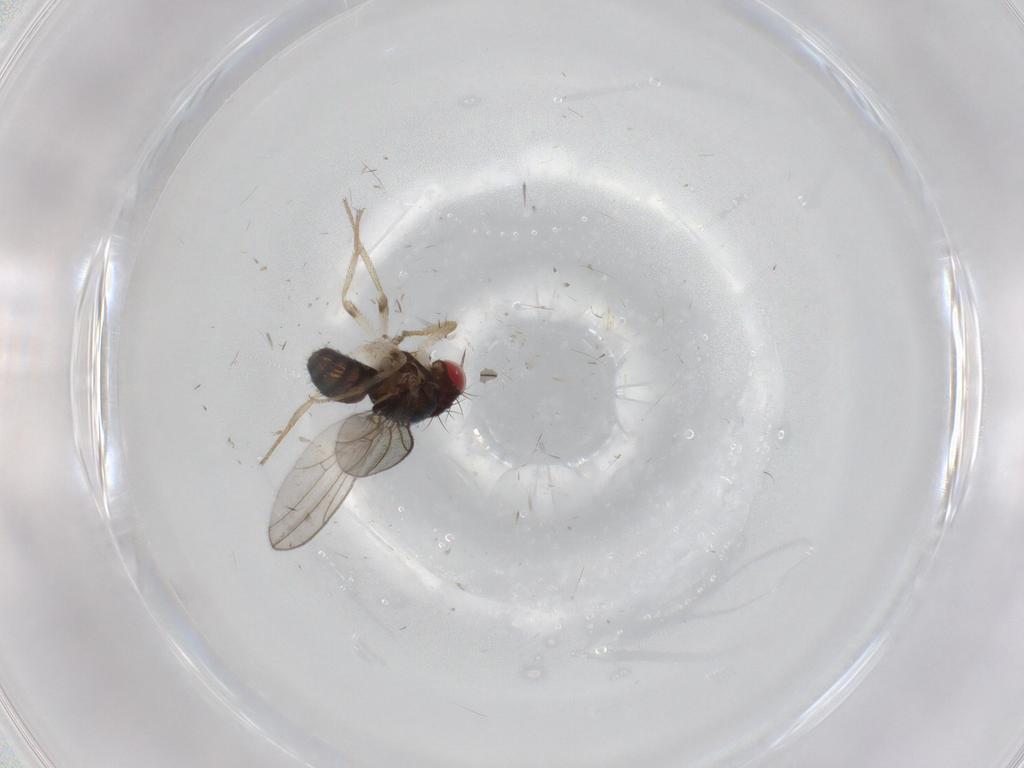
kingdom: Animalia
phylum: Arthropoda
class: Insecta
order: Diptera
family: Drosophilidae
